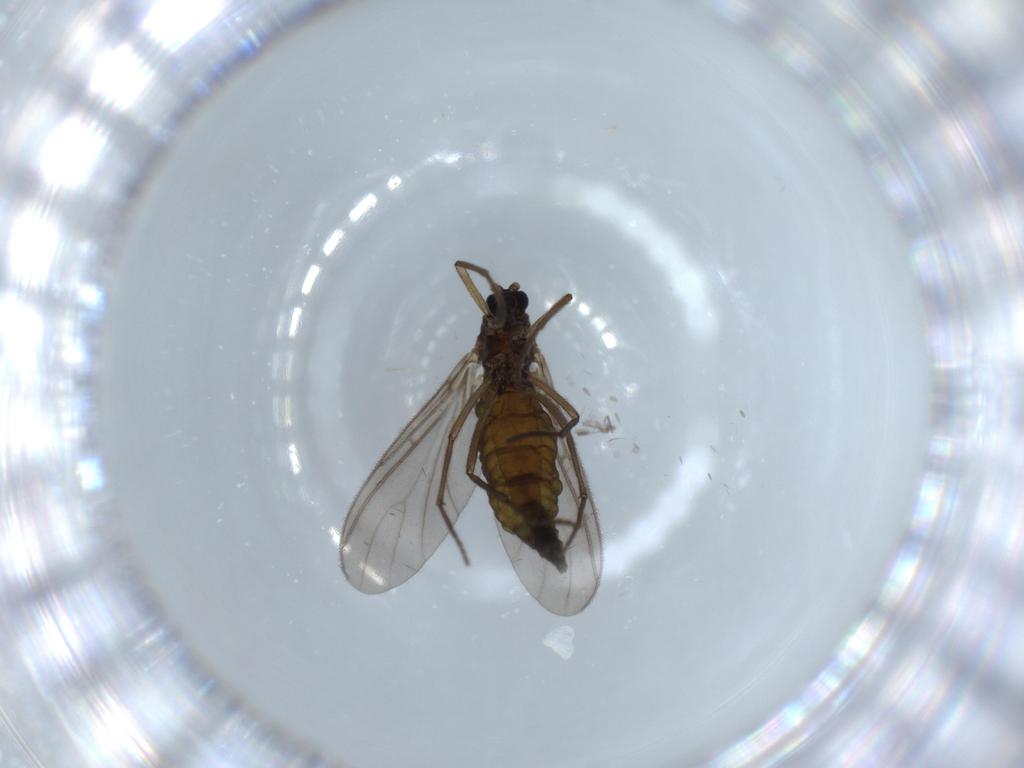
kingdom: Animalia
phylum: Arthropoda
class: Insecta
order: Diptera
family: Sciaridae
